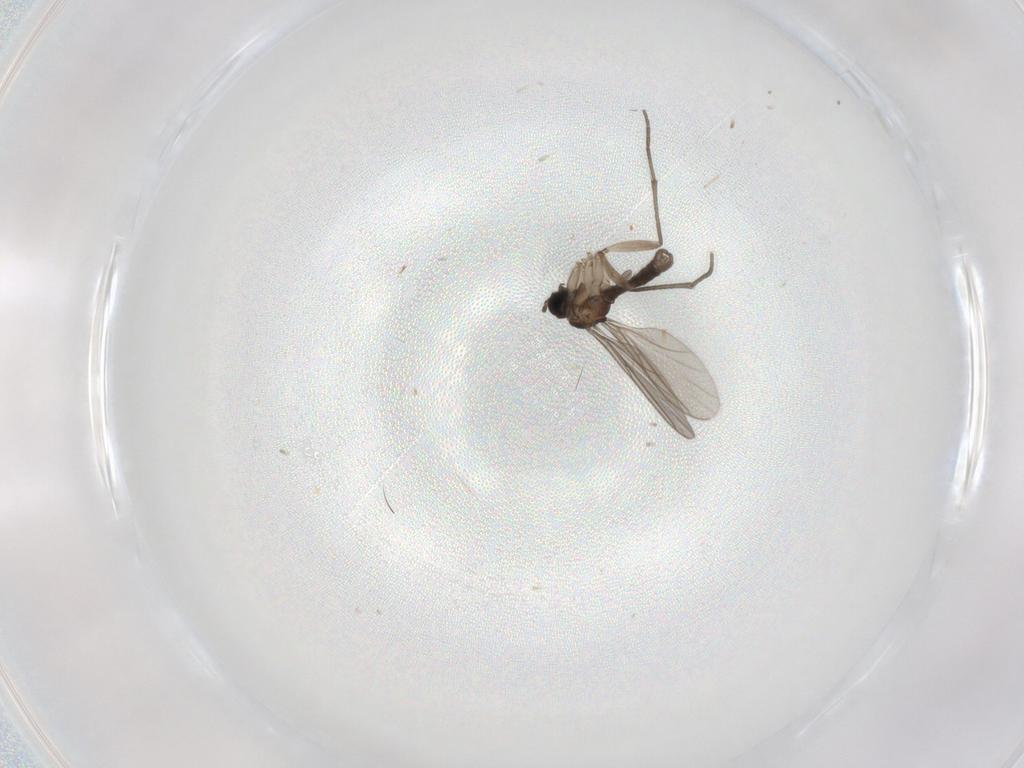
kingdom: Animalia
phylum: Arthropoda
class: Insecta
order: Diptera
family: Sciaridae
